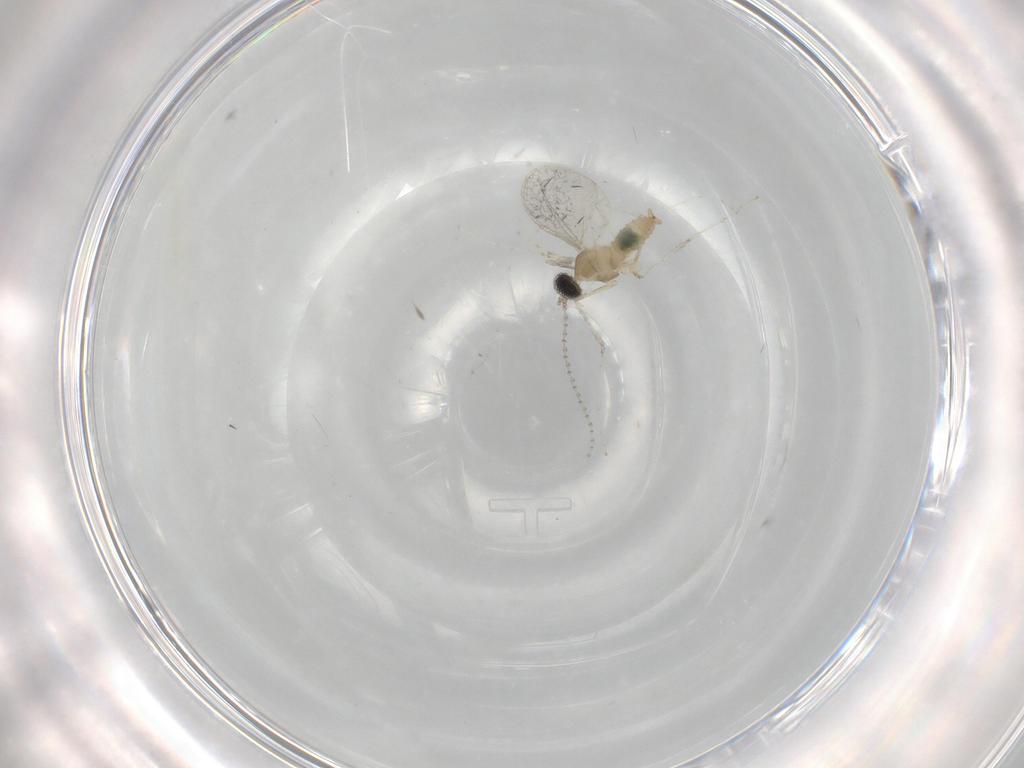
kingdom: Animalia
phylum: Arthropoda
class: Insecta
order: Diptera
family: Cecidomyiidae
